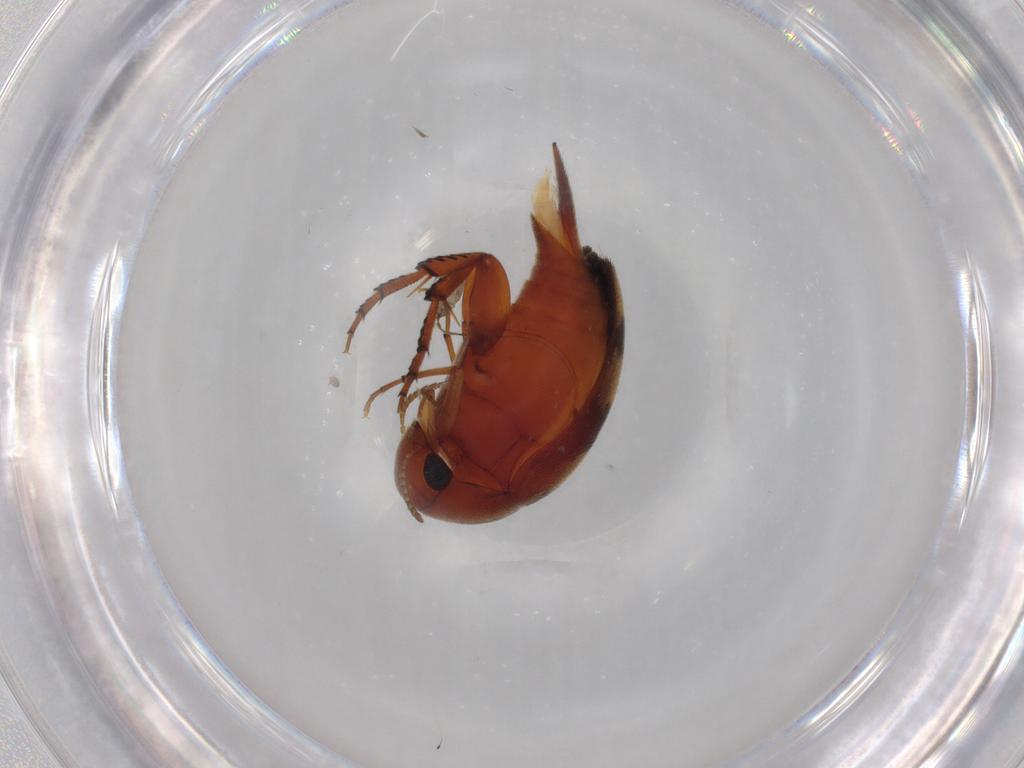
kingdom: Animalia
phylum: Arthropoda
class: Insecta
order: Coleoptera
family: Mordellidae
